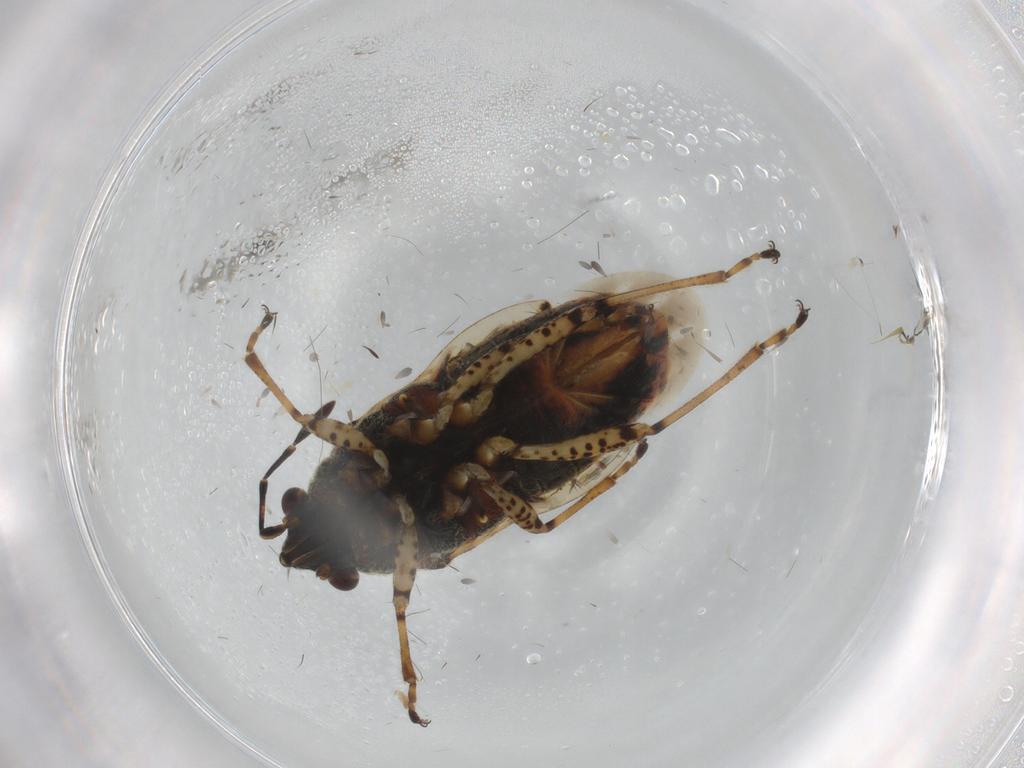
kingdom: Animalia
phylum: Arthropoda
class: Insecta
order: Hemiptera
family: Lygaeidae
